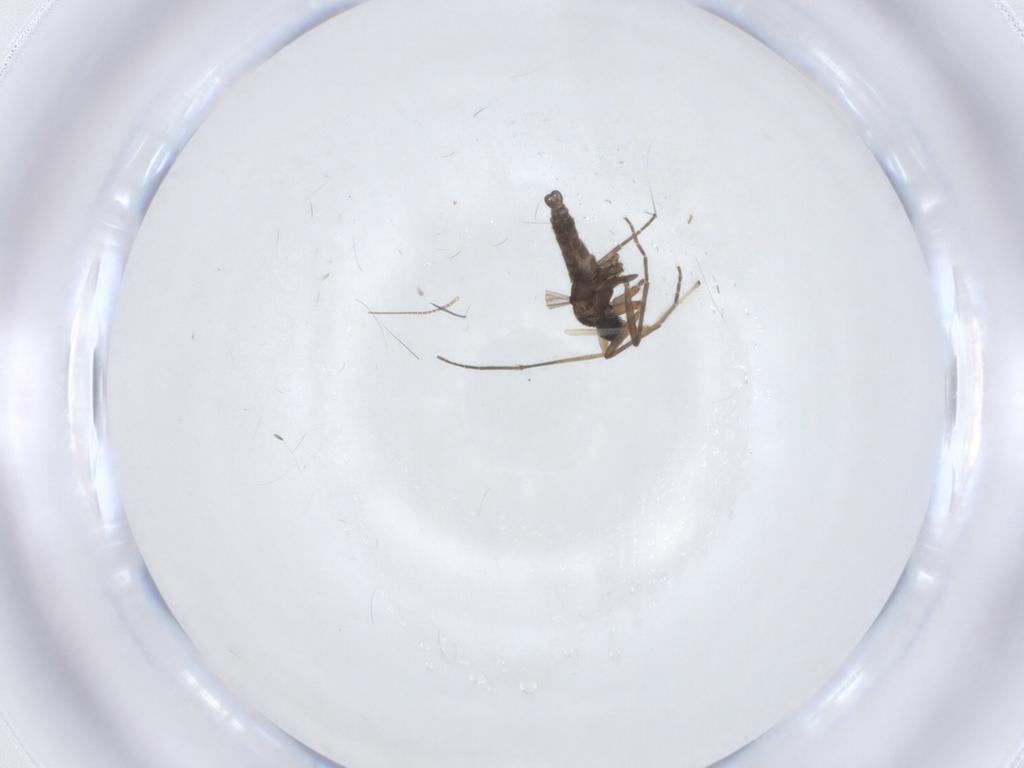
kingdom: Animalia
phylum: Arthropoda
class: Insecta
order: Diptera
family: Sciaridae
